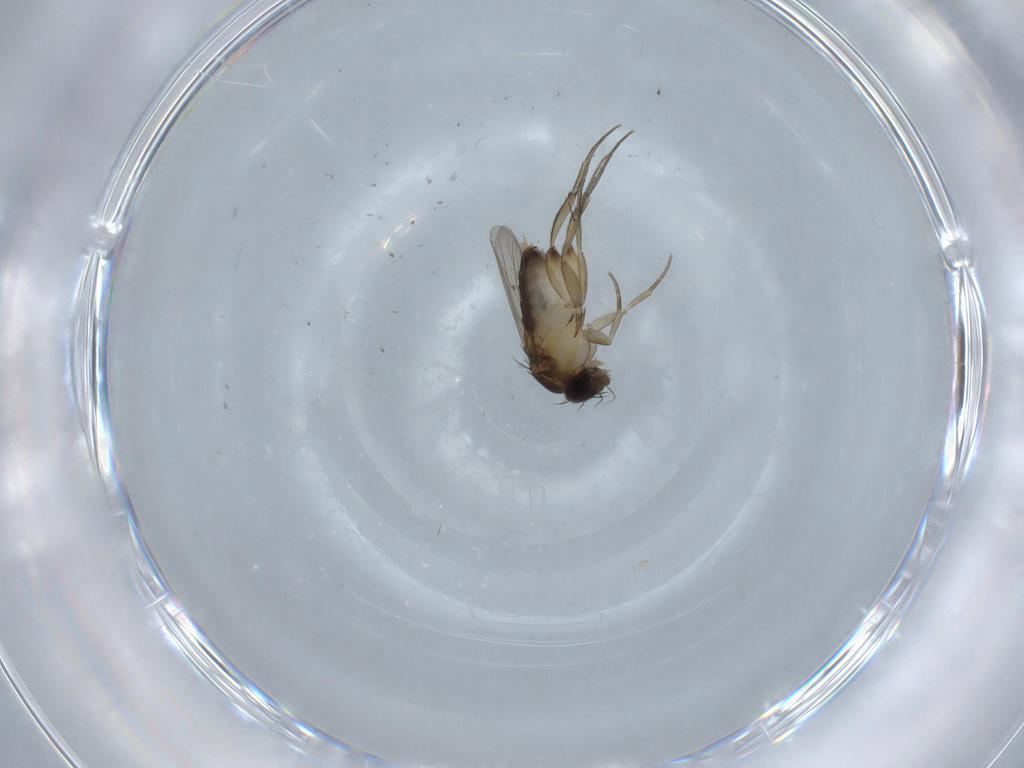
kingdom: Animalia
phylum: Arthropoda
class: Insecta
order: Diptera
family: Phoridae
